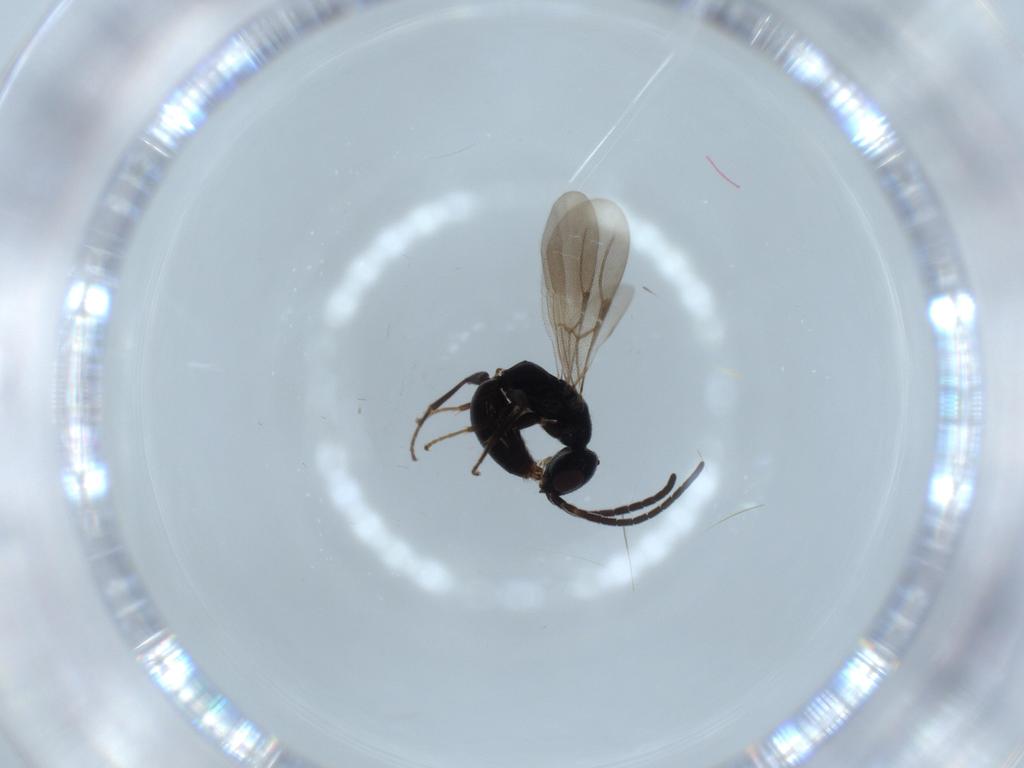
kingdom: Animalia
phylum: Arthropoda
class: Insecta
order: Hymenoptera
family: Bethylidae
